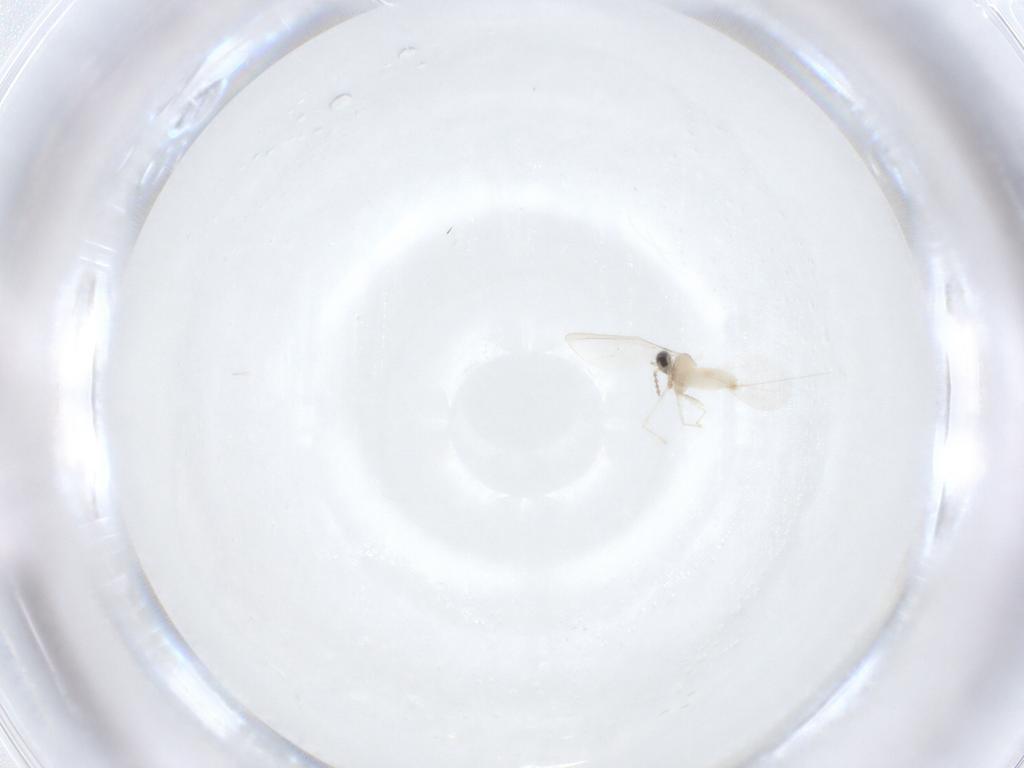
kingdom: Animalia
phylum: Arthropoda
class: Insecta
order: Diptera
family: Cecidomyiidae
